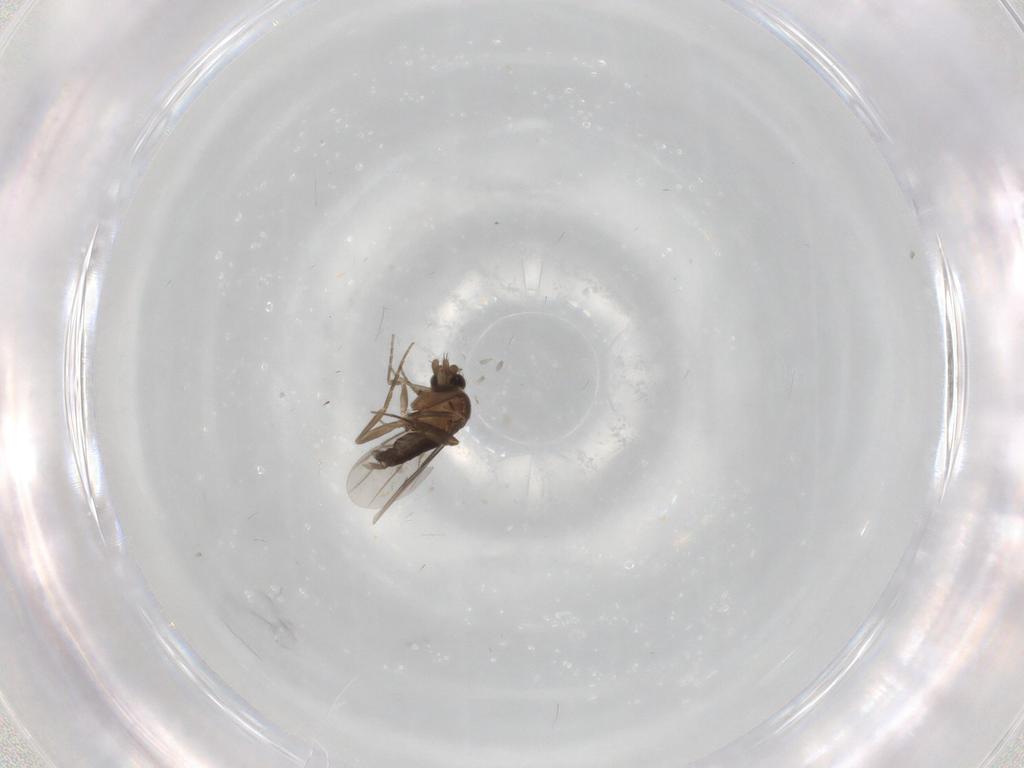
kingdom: Animalia
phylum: Arthropoda
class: Insecta
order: Diptera
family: Phoridae
